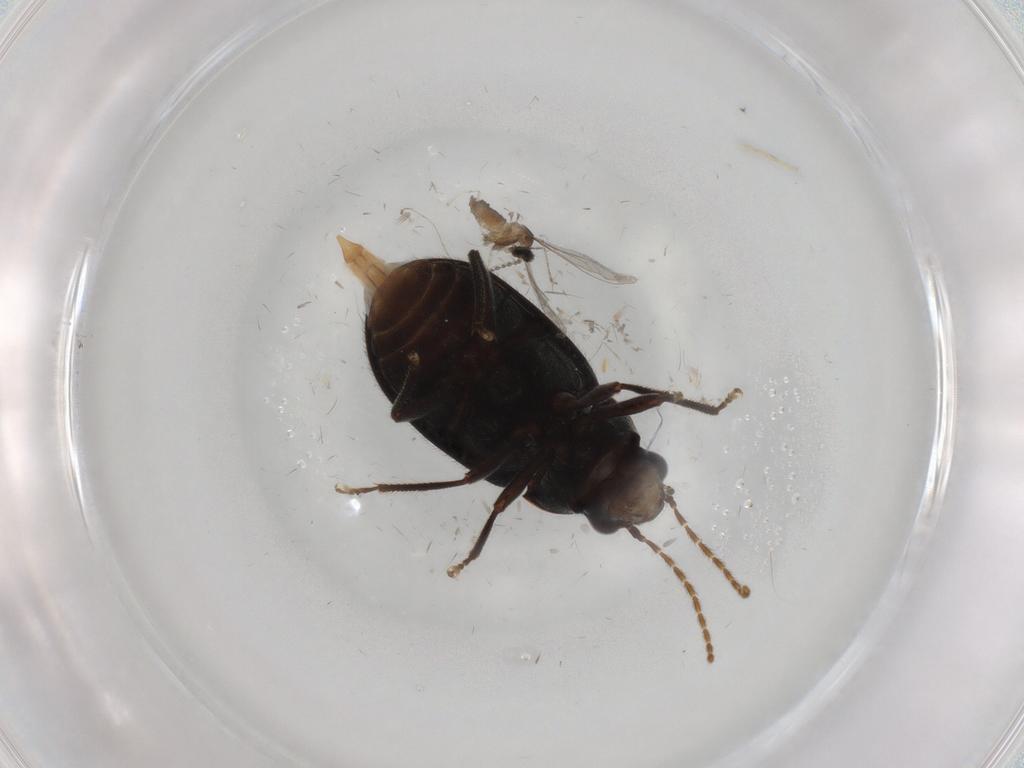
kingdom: Animalia
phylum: Arthropoda
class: Insecta
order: Coleoptera
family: Ptilodactylidae
